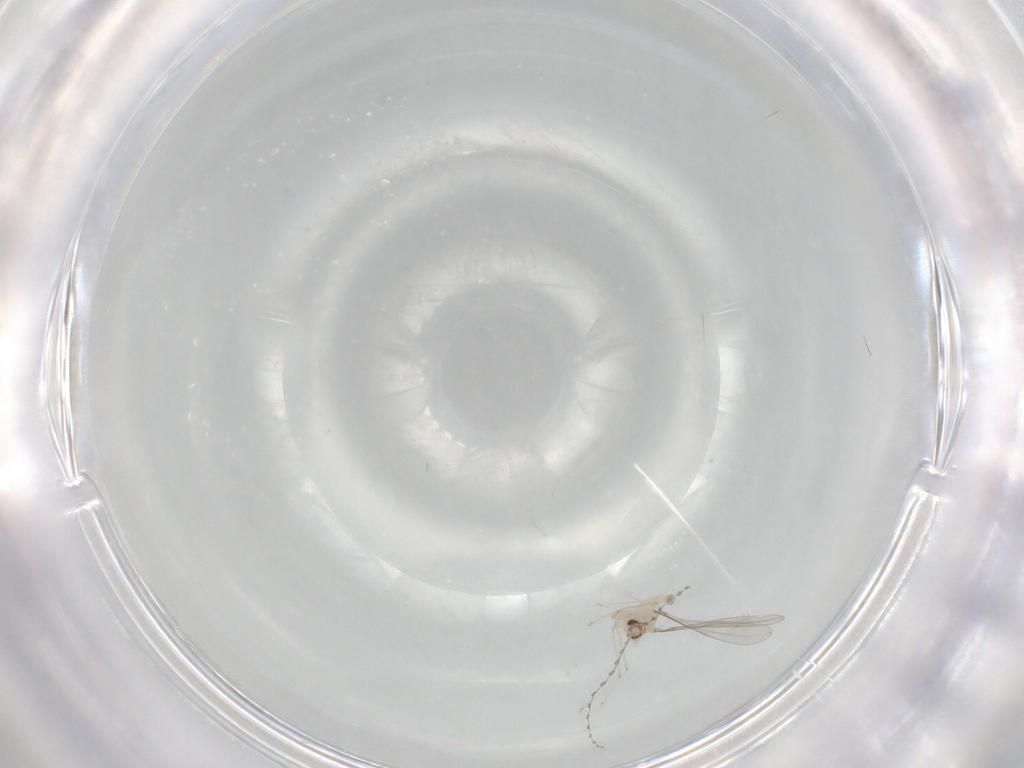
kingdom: Animalia
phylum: Arthropoda
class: Insecta
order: Diptera
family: Cecidomyiidae
